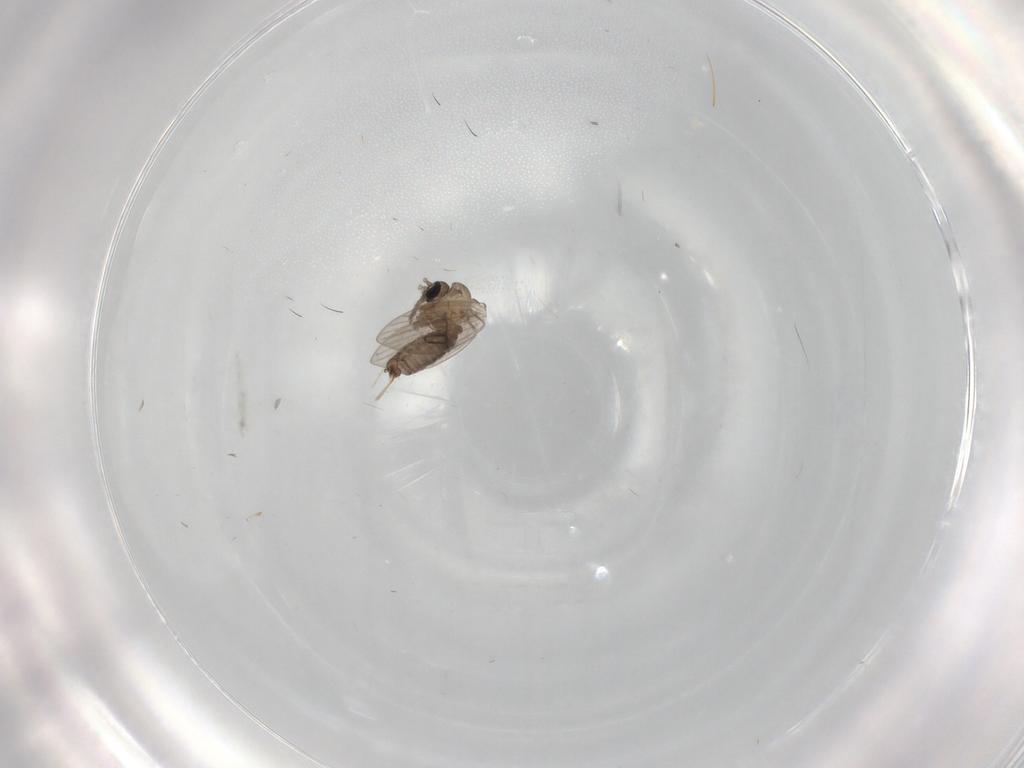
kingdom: Animalia
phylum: Arthropoda
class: Insecta
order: Diptera
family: Psychodidae
